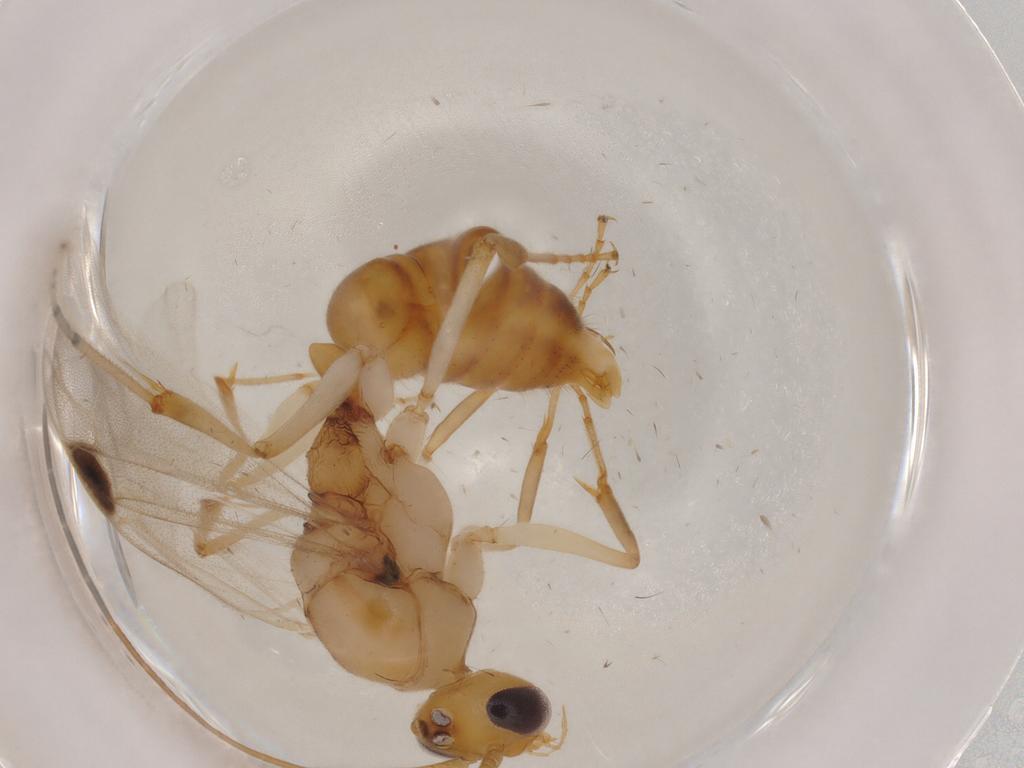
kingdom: Animalia
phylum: Arthropoda
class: Insecta
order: Hymenoptera
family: Formicidae
